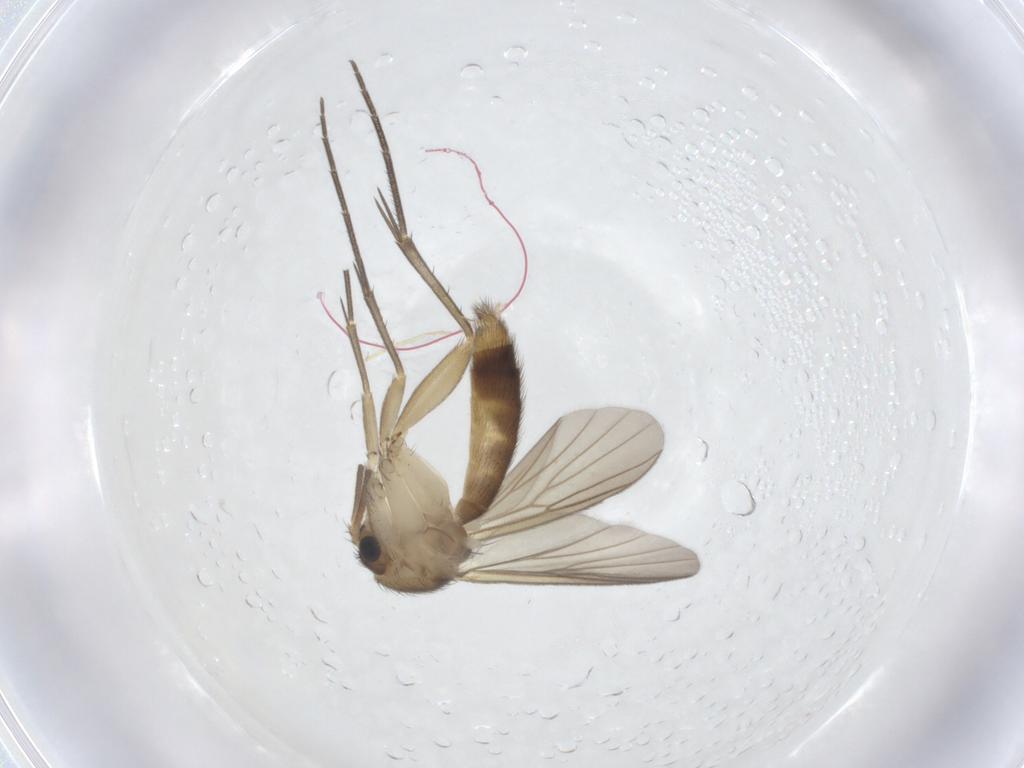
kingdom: Animalia
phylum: Arthropoda
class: Insecta
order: Diptera
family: Mycetophilidae
